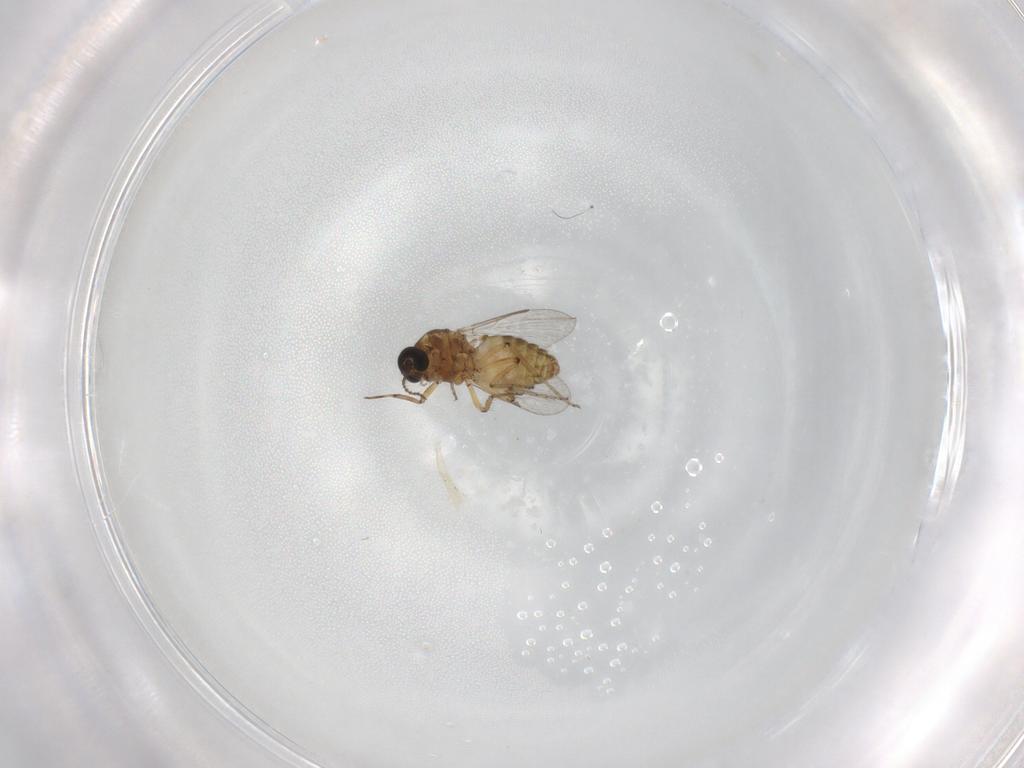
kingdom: Animalia
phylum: Arthropoda
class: Insecta
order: Diptera
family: Ceratopogonidae
